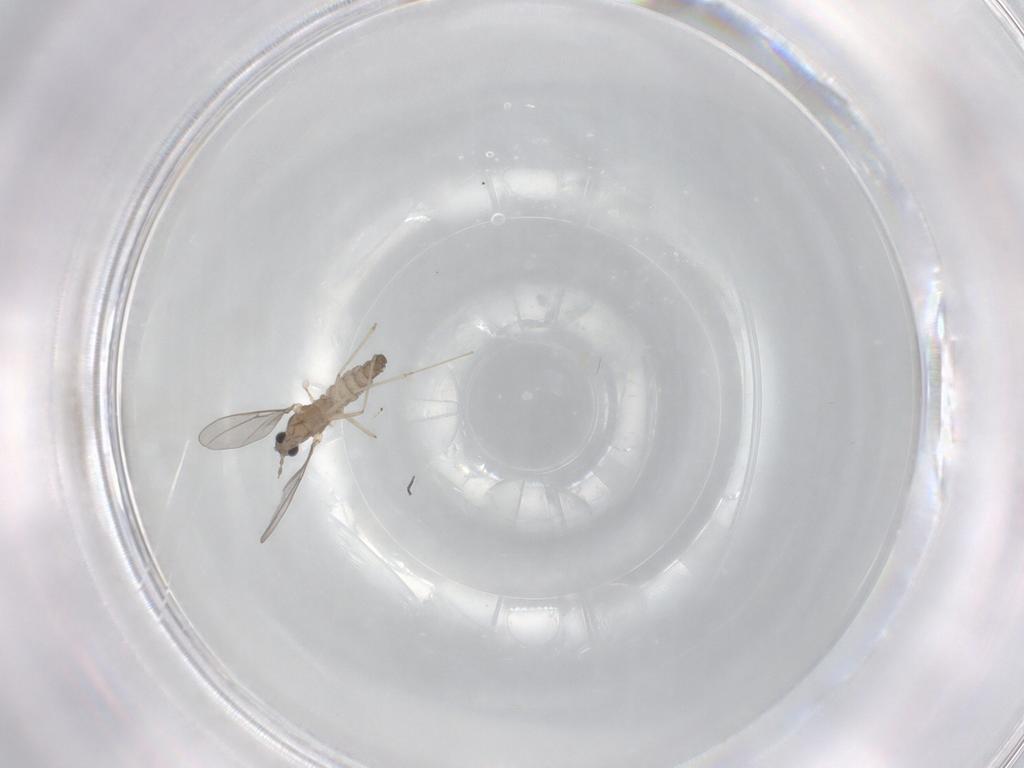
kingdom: Animalia
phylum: Arthropoda
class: Insecta
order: Diptera
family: Cecidomyiidae
